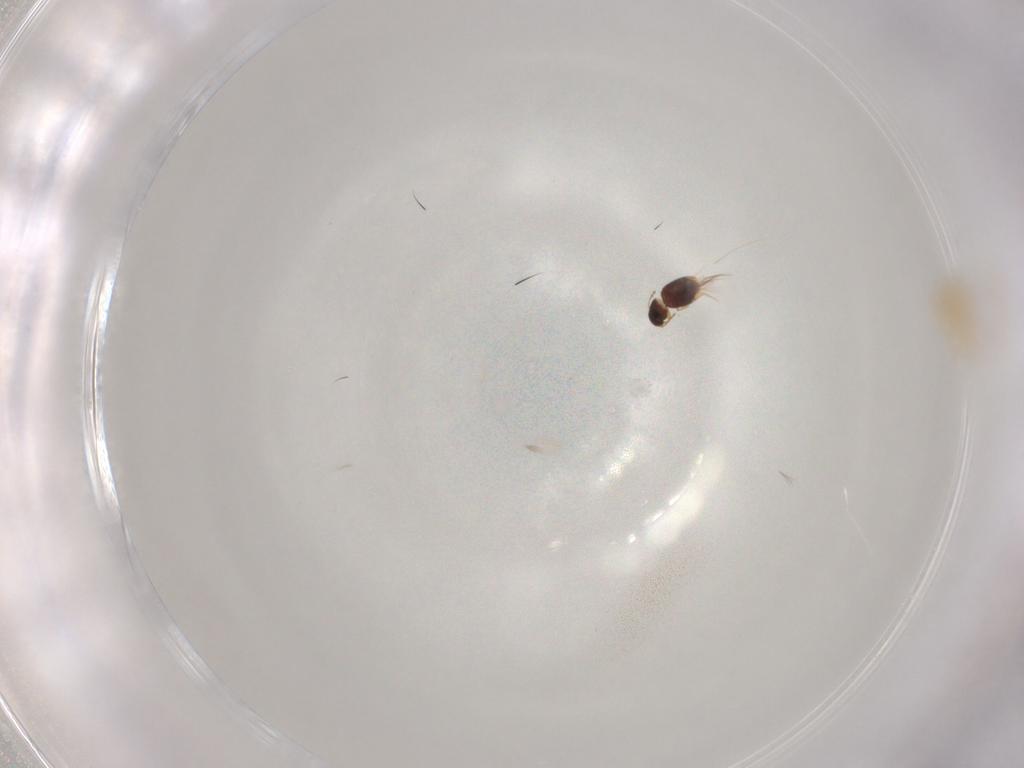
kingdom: Animalia
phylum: Arthropoda
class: Insecta
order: Coleoptera
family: Ptiliidae
